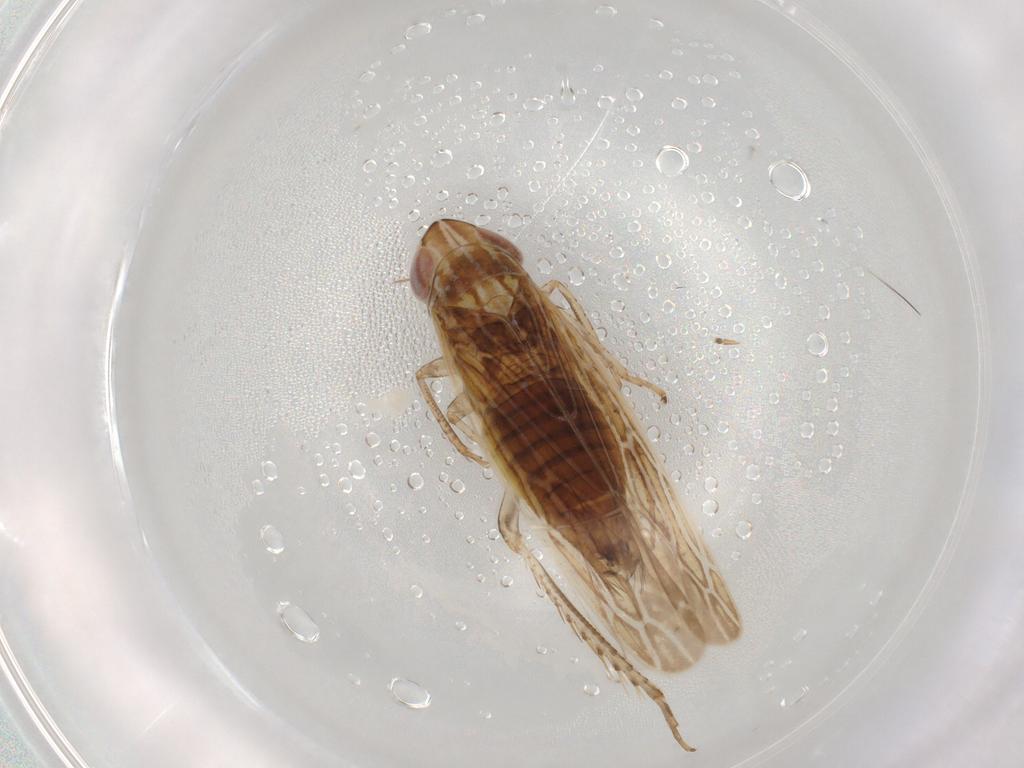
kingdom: Animalia
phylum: Arthropoda
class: Insecta
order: Hemiptera
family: Cicadellidae
